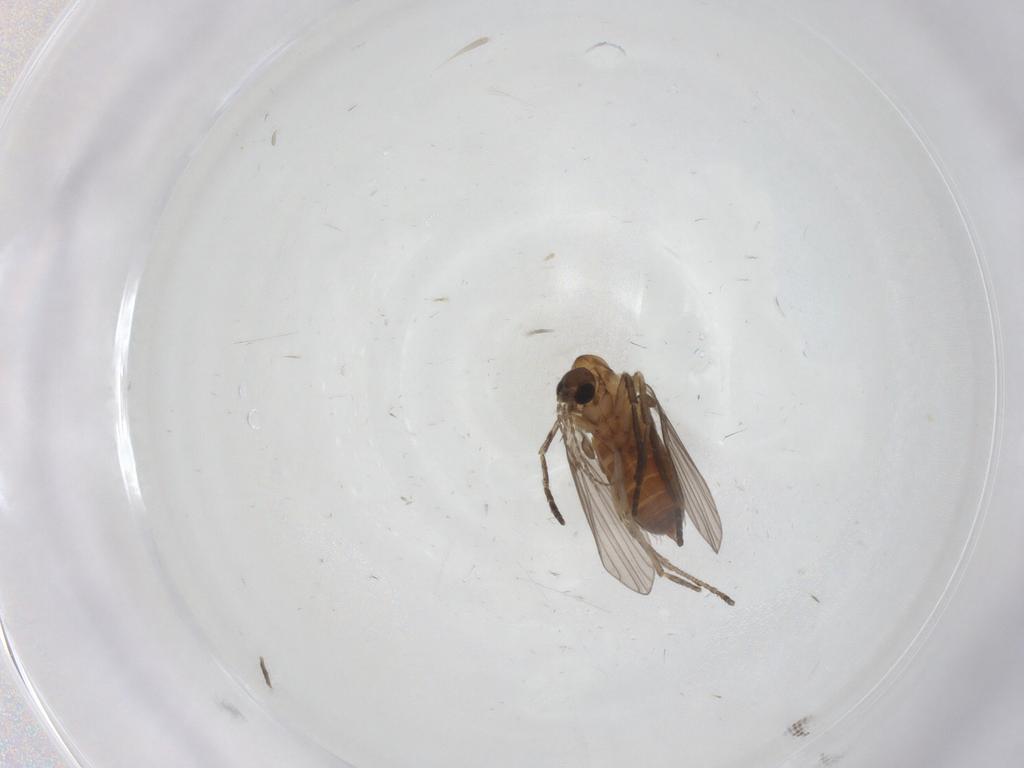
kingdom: Animalia
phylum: Arthropoda
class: Insecta
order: Diptera
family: Cecidomyiidae
